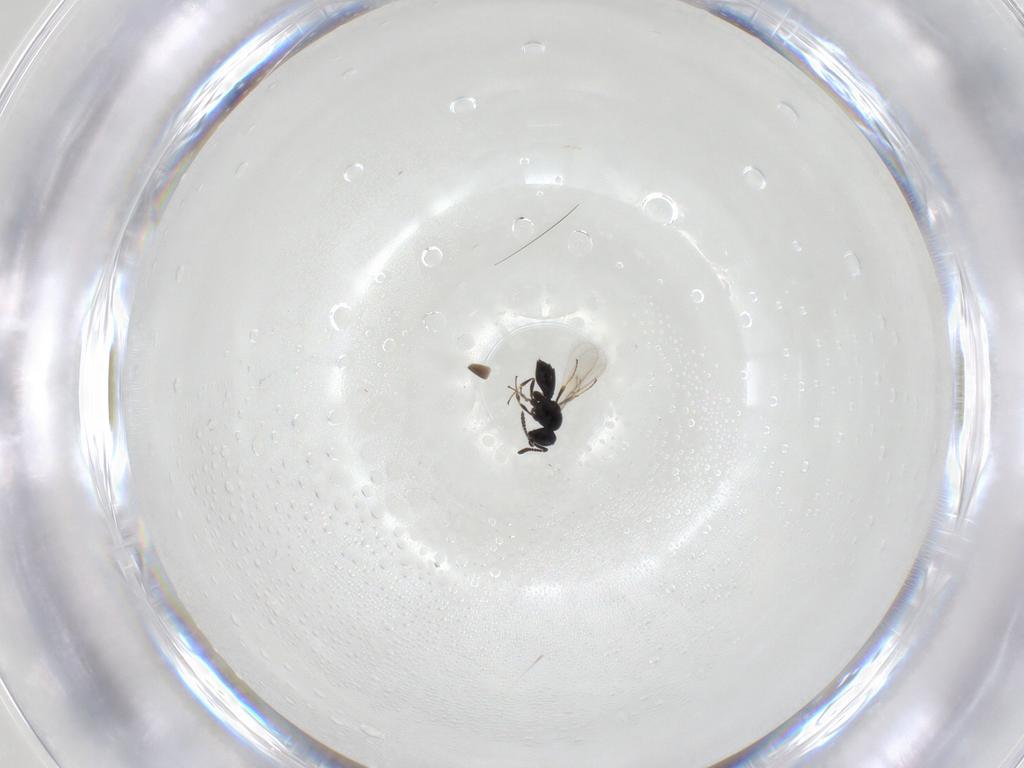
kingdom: Animalia
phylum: Arthropoda
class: Insecta
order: Hymenoptera
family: Scelionidae
